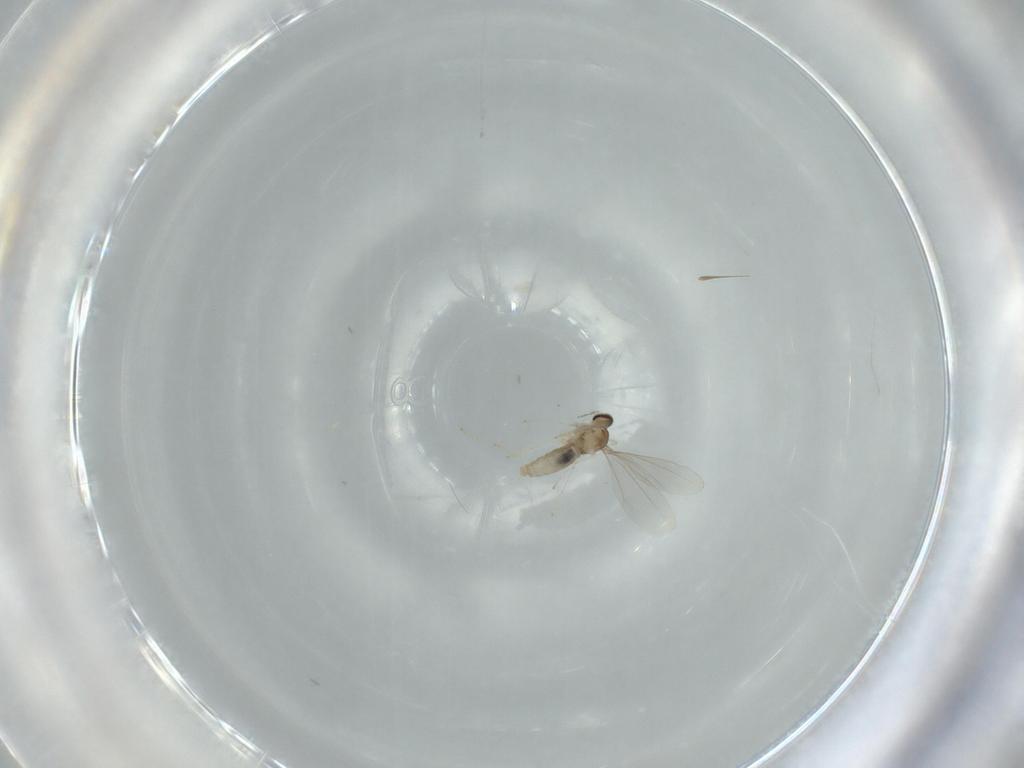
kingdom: Animalia
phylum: Arthropoda
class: Insecta
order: Diptera
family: Cecidomyiidae
